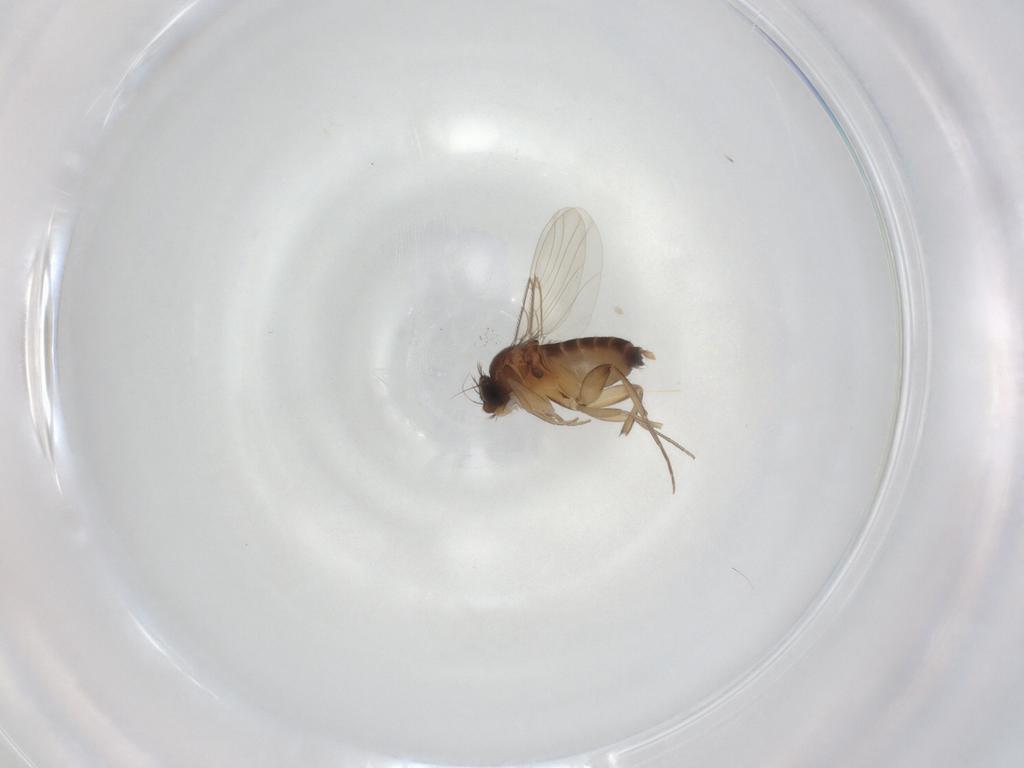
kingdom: Animalia
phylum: Arthropoda
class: Insecta
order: Diptera
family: Phoridae
